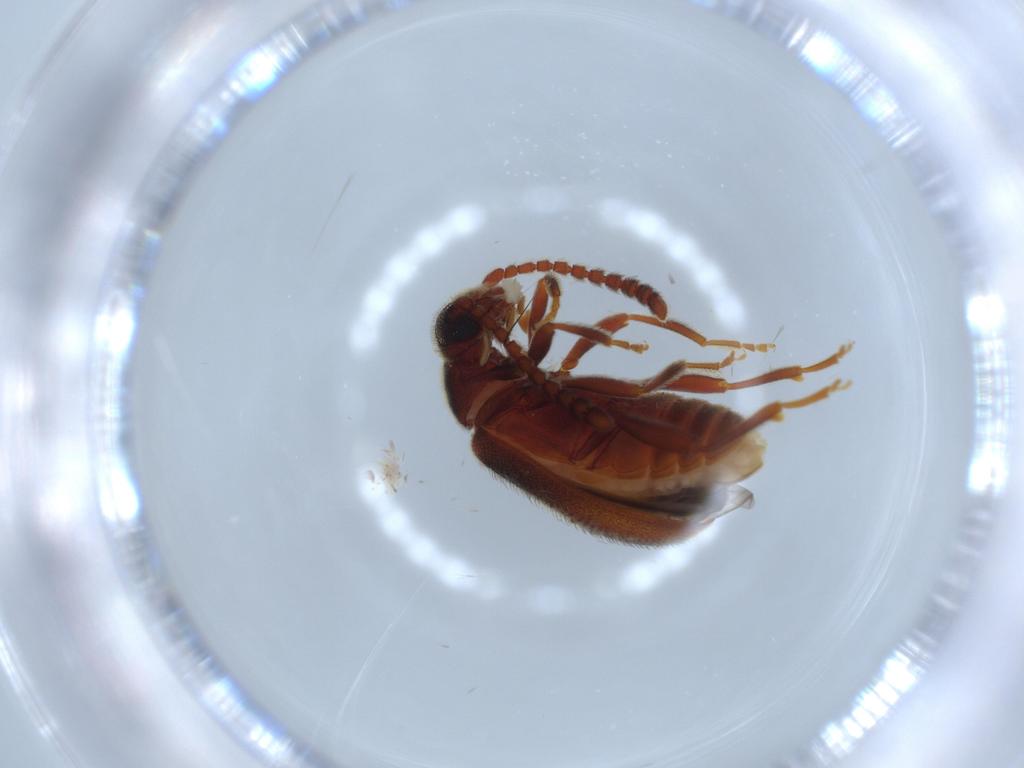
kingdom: Animalia
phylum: Arthropoda
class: Insecta
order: Coleoptera
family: Aderidae
